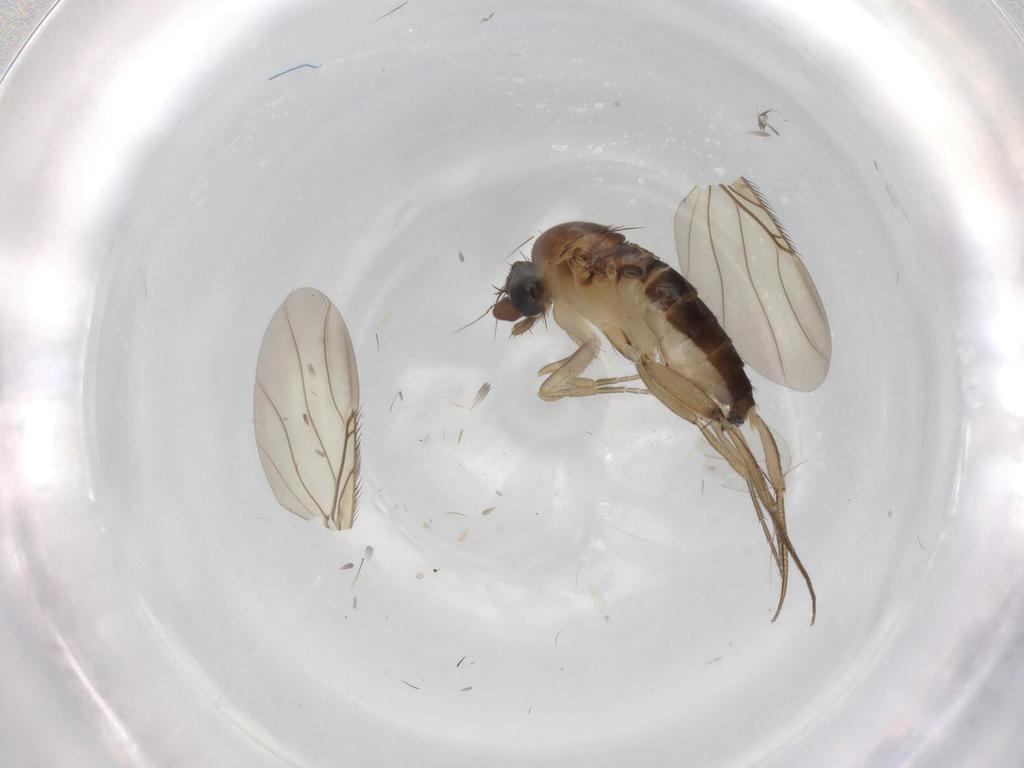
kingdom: Animalia
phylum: Arthropoda
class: Insecta
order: Diptera
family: Phoridae
